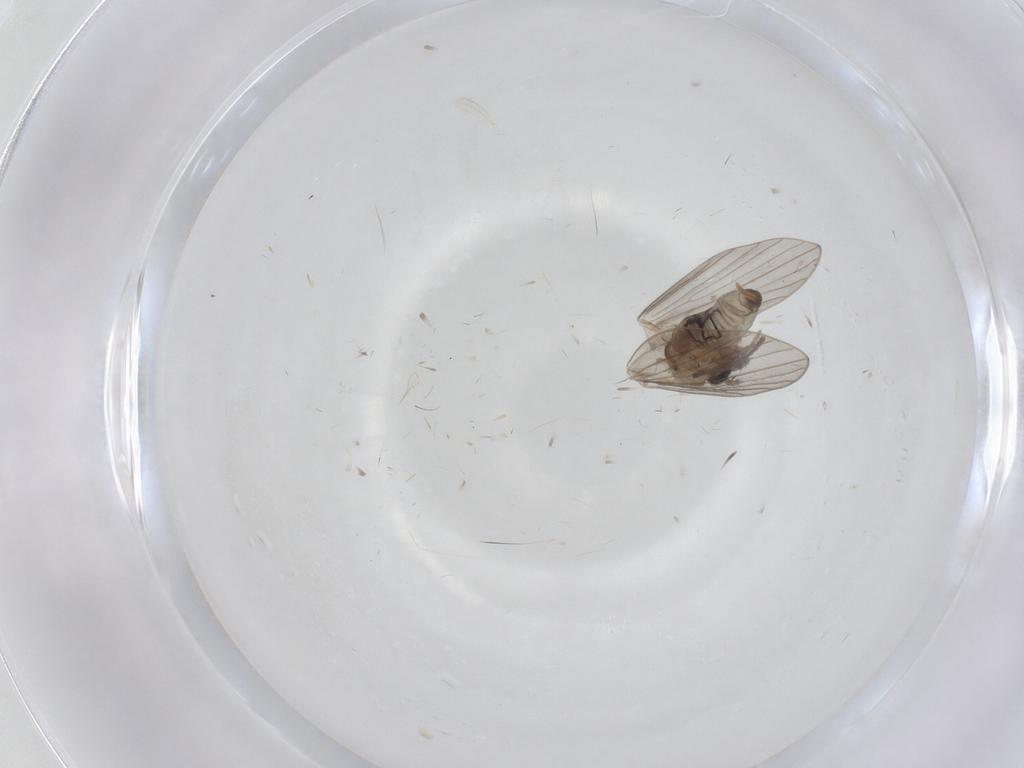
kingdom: Animalia
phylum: Arthropoda
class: Insecta
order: Diptera
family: Psychodidae
